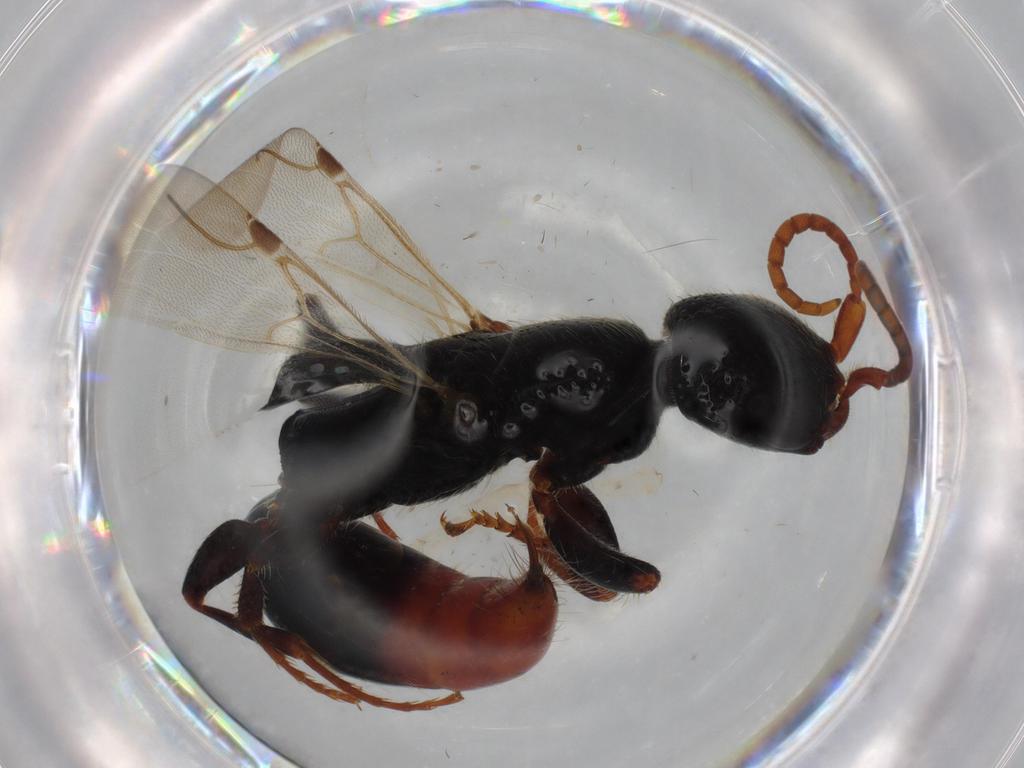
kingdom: Animalia
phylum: Arthropoda
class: Insecta
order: Hymenoptera
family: Bethylidae
